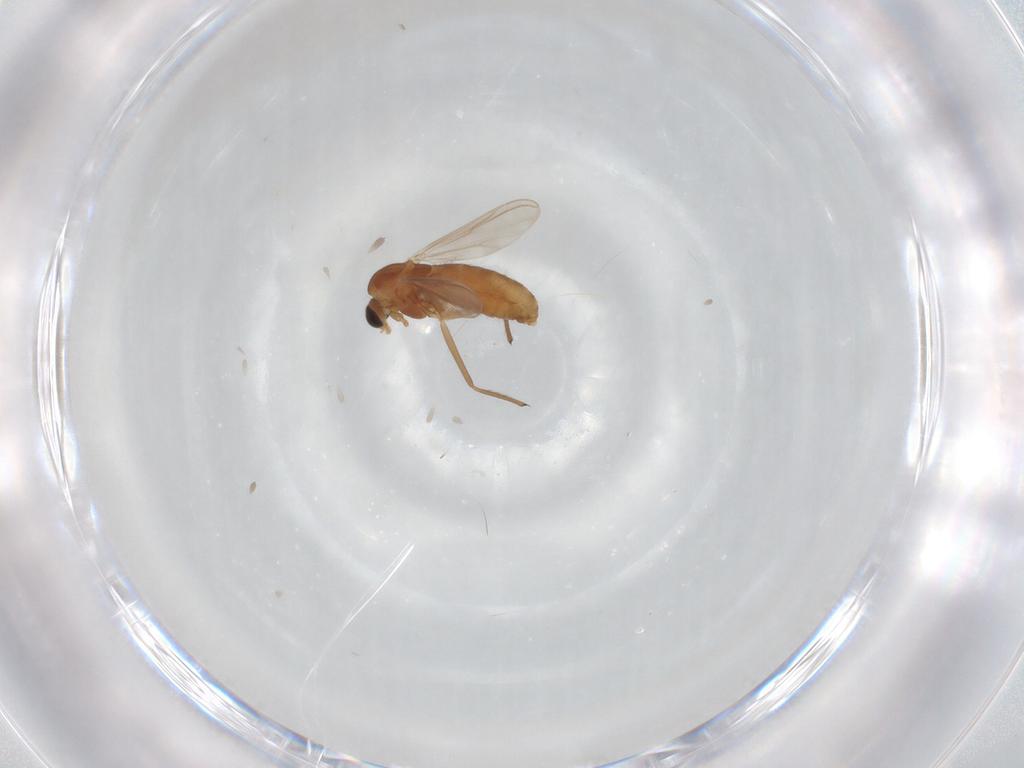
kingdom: Animalia
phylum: Arthropoda
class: Insecta
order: Diptera
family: Chironomidae
